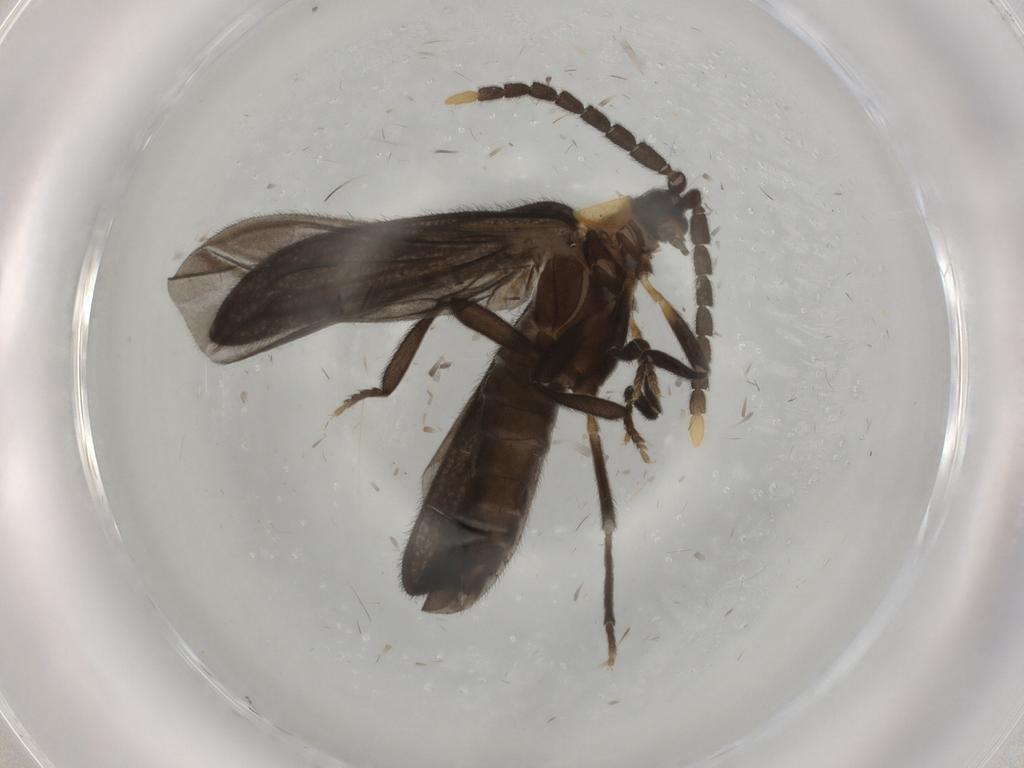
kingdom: Animalia
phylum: Arthropoda
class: Insecta
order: Coleoptera
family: Lycidae
